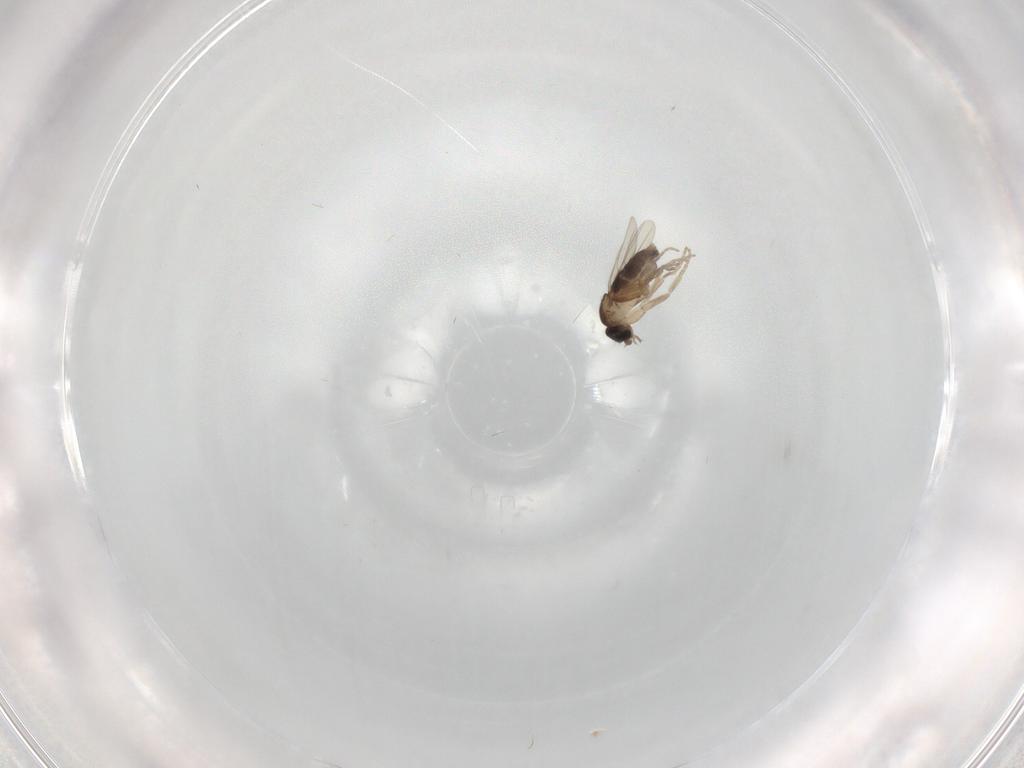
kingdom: Animalia
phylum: Arthropoda
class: Insecta
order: Diptera
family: Phoridae
